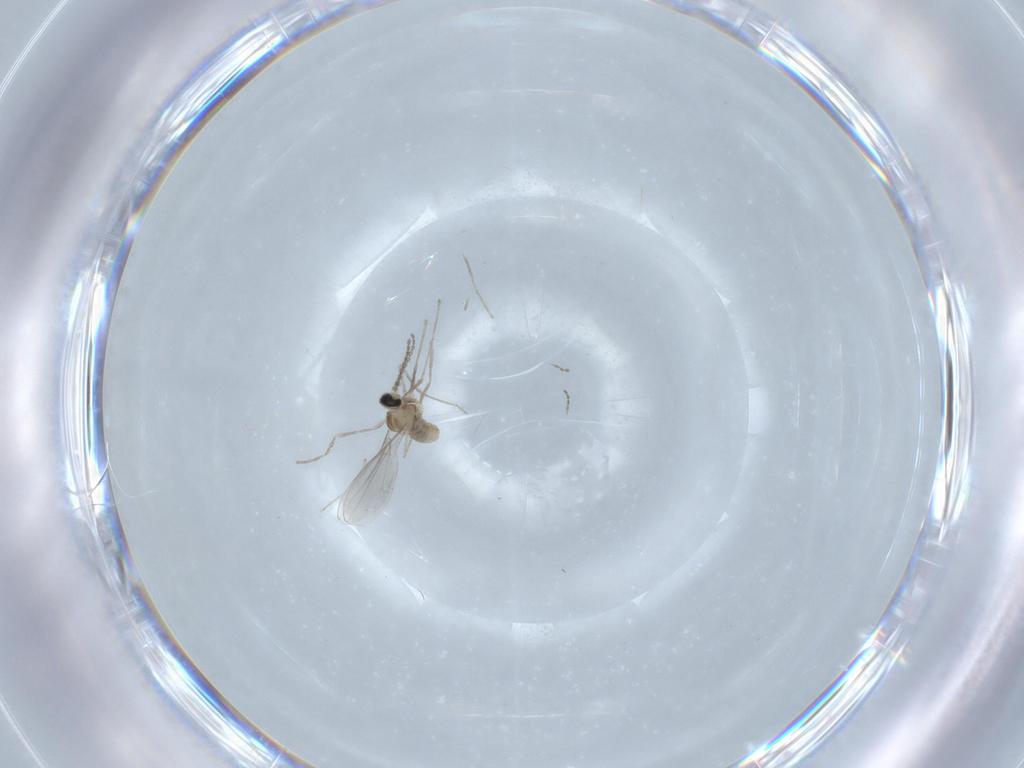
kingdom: Animalia
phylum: Arthropoda
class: Insecta
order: Diptera
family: Cecidomyiidae
